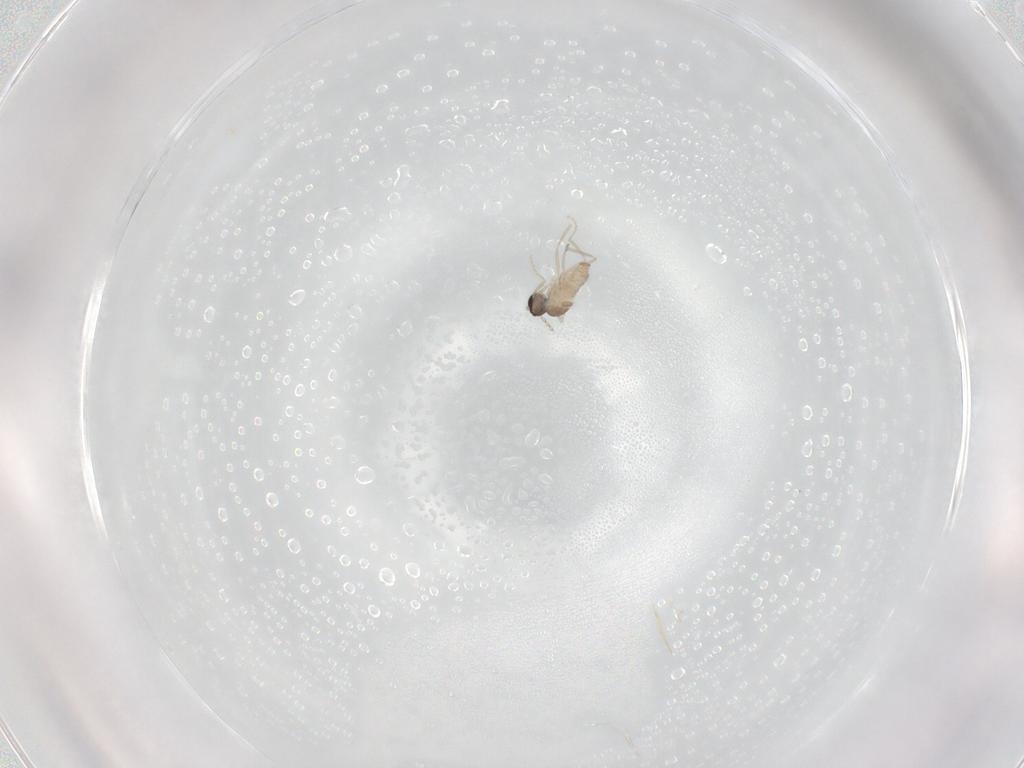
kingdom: Animalia
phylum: Arthropoda
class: Insecta
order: Diptera
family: Cecidomyiidae
